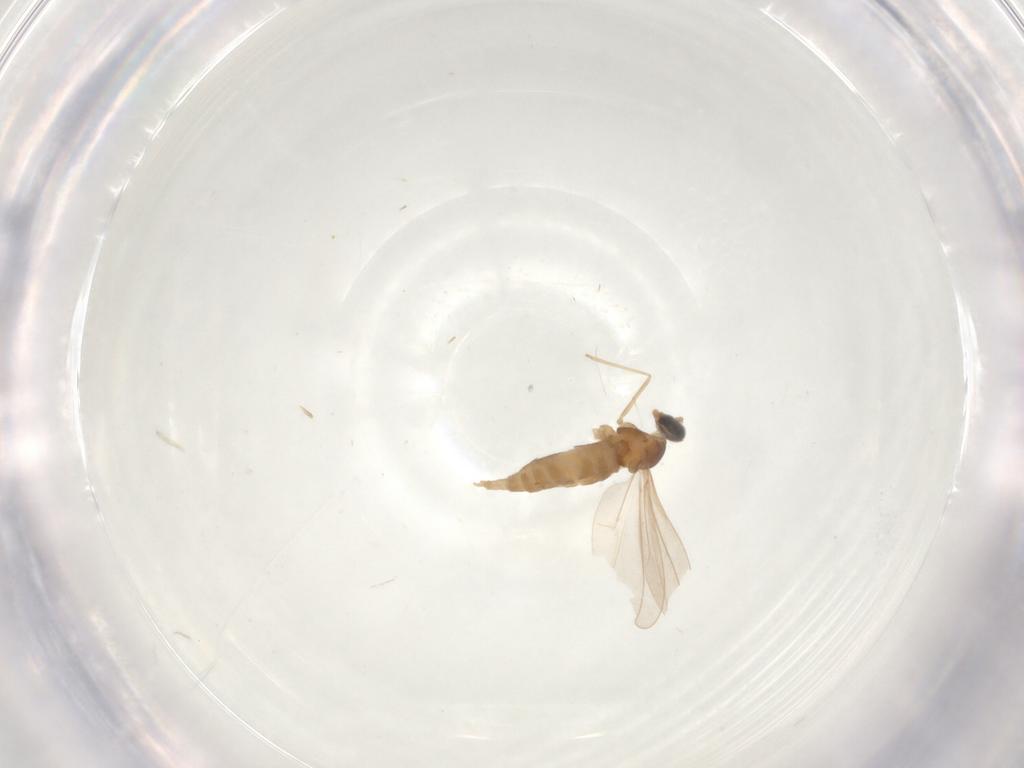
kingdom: Animalia
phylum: Arthropoda
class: Insecta
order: Diptera
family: Cecidomyiidae
